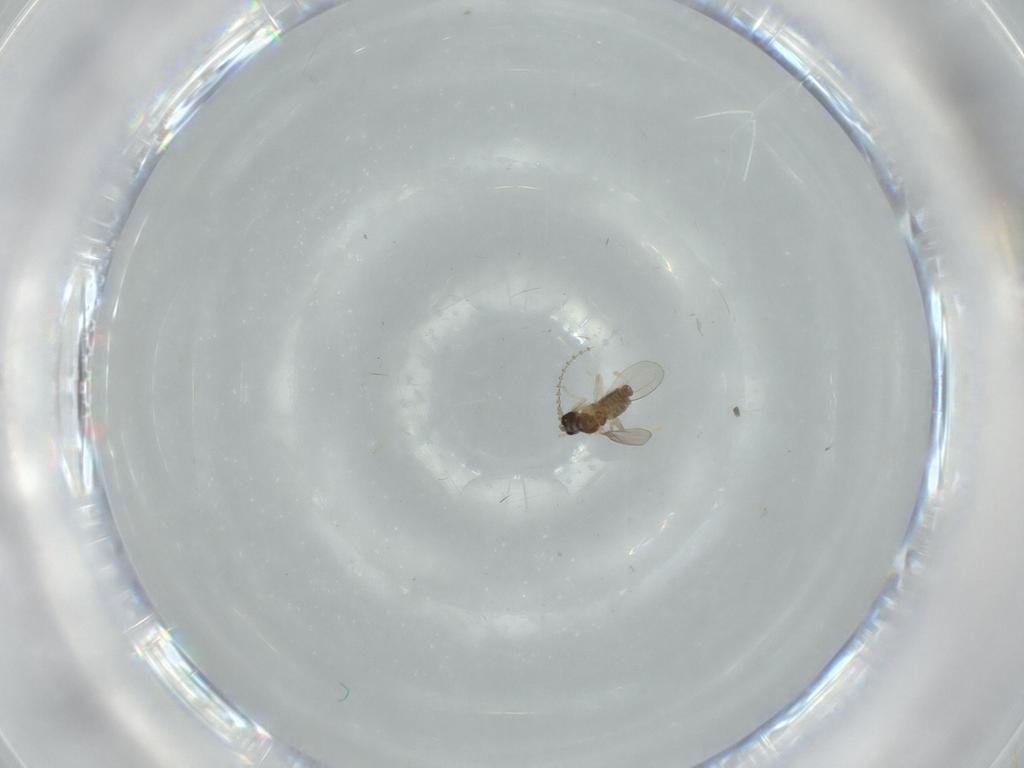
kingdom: Animalia
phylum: Arthropoda
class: Insecta
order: Diptera
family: Cecidomyiidae
